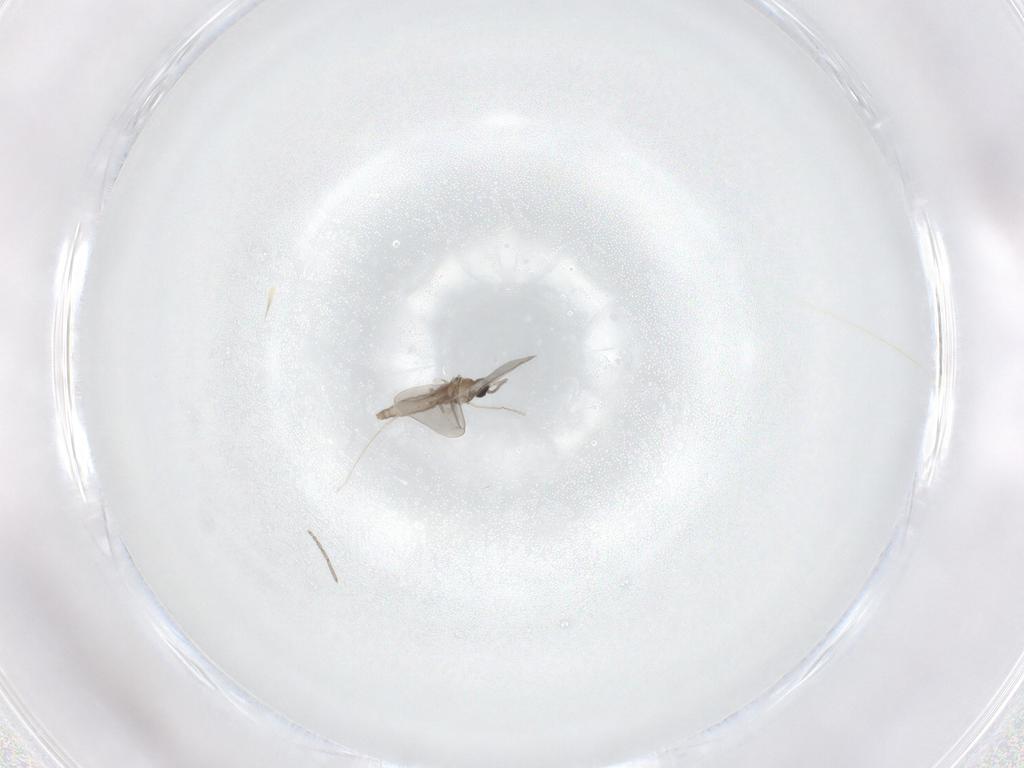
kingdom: Animalia
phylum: Arthropoda
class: Insecta
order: Diptera
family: Cecidomyiidae
